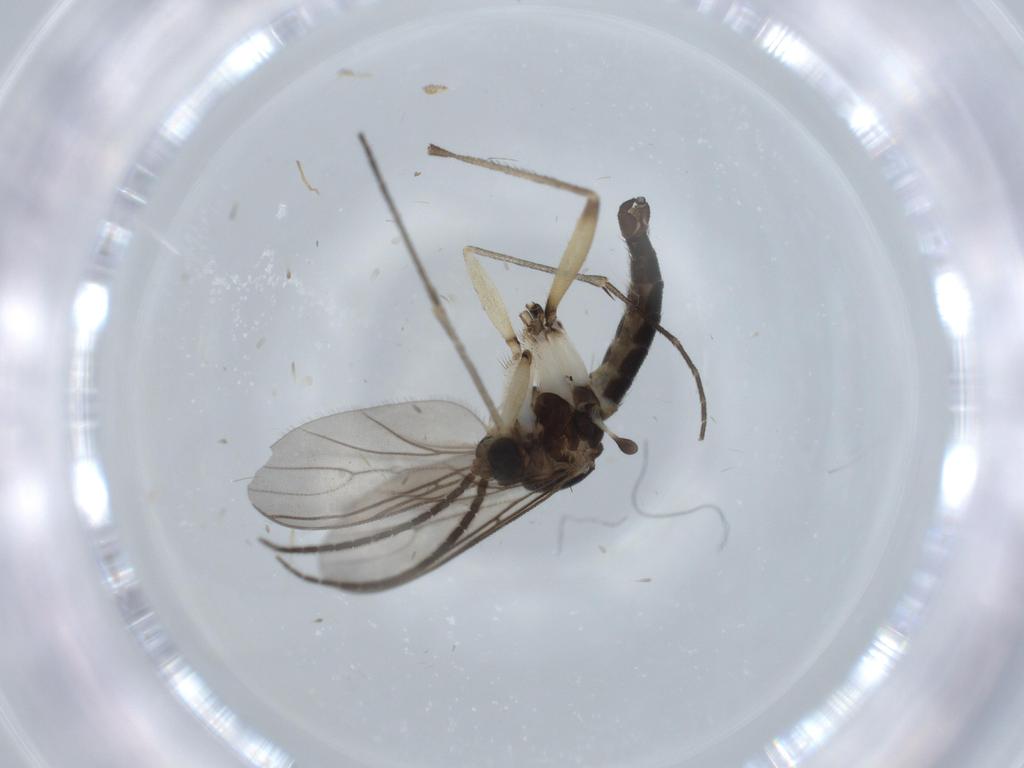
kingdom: Animalia
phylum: Arthropoda
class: Insecta
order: Diptera
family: Sciaridae
